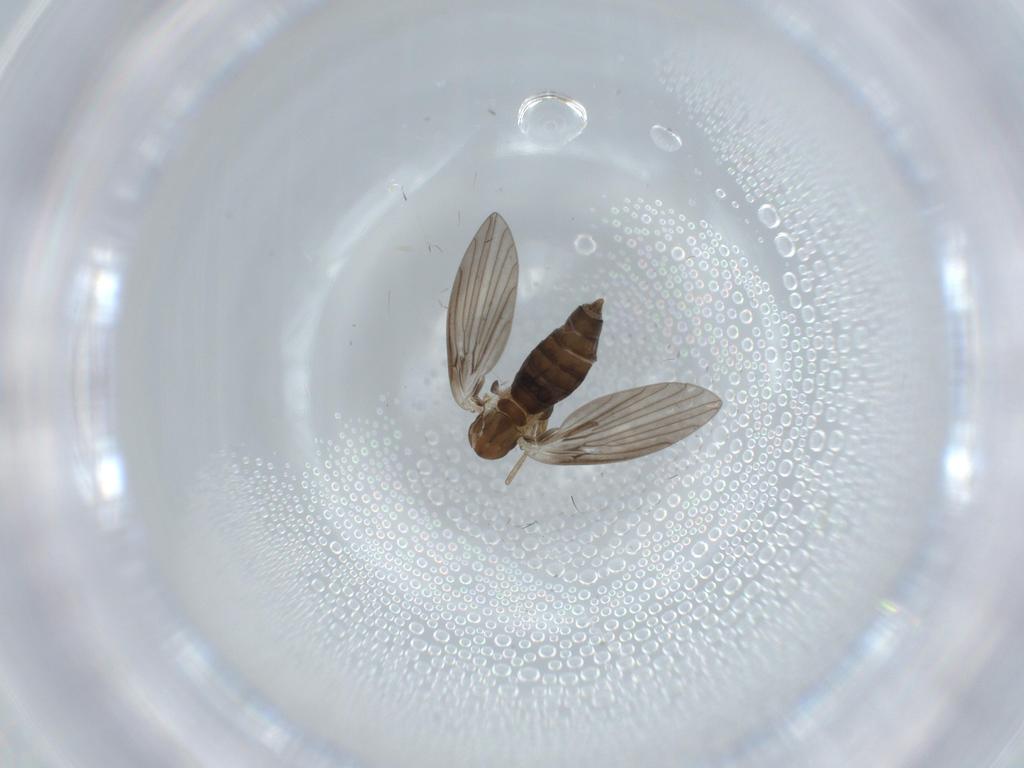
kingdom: Animalia
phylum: Arthropoda
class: Insecta
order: Diptera
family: Psychodidae
